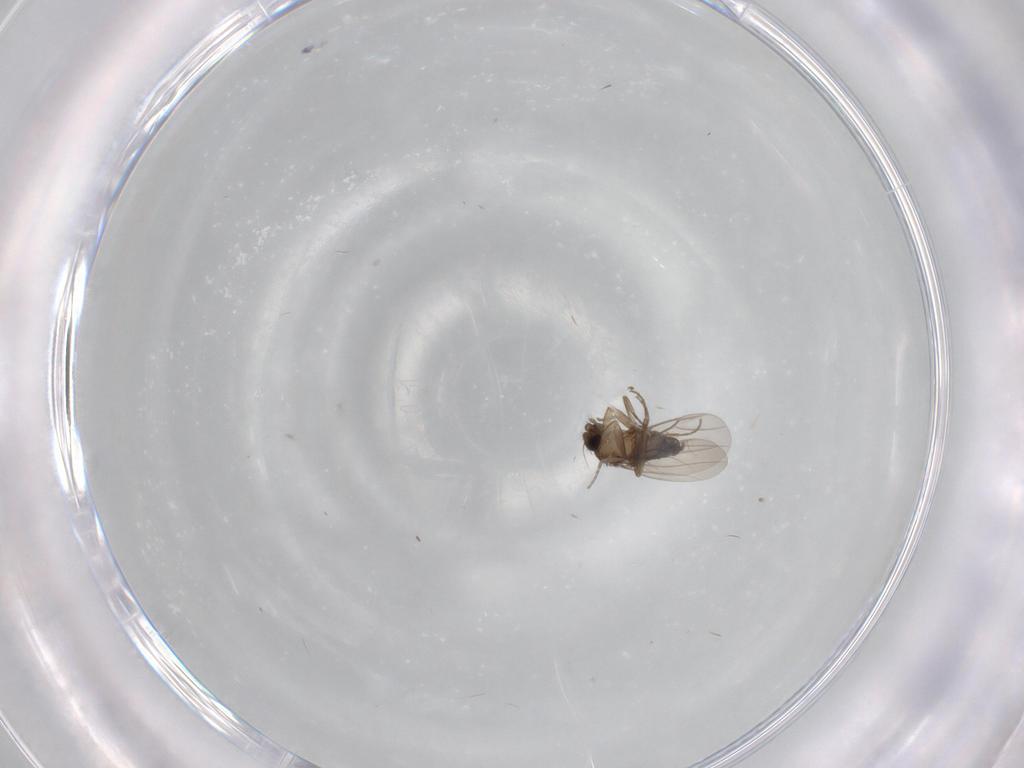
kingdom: Animalia
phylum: Arthropoda
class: Insecta
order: Diptera
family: Phoridae
